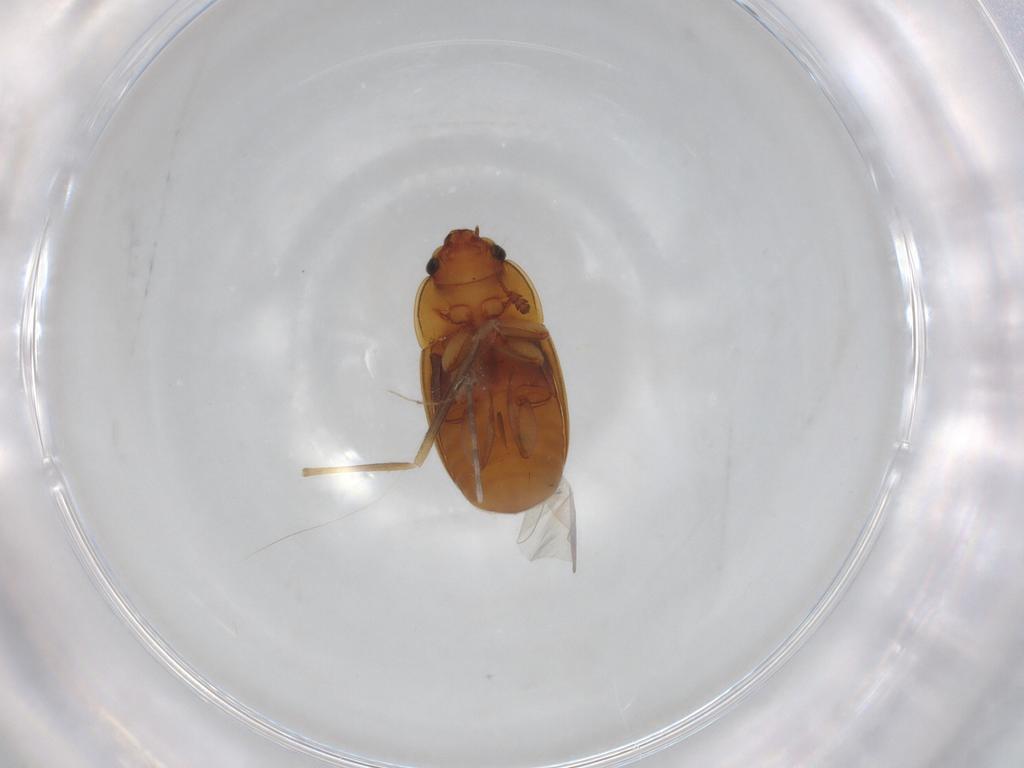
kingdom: Animalia
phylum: Arthropoda
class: Insecta
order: Coleoptera
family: Nitidulidae
